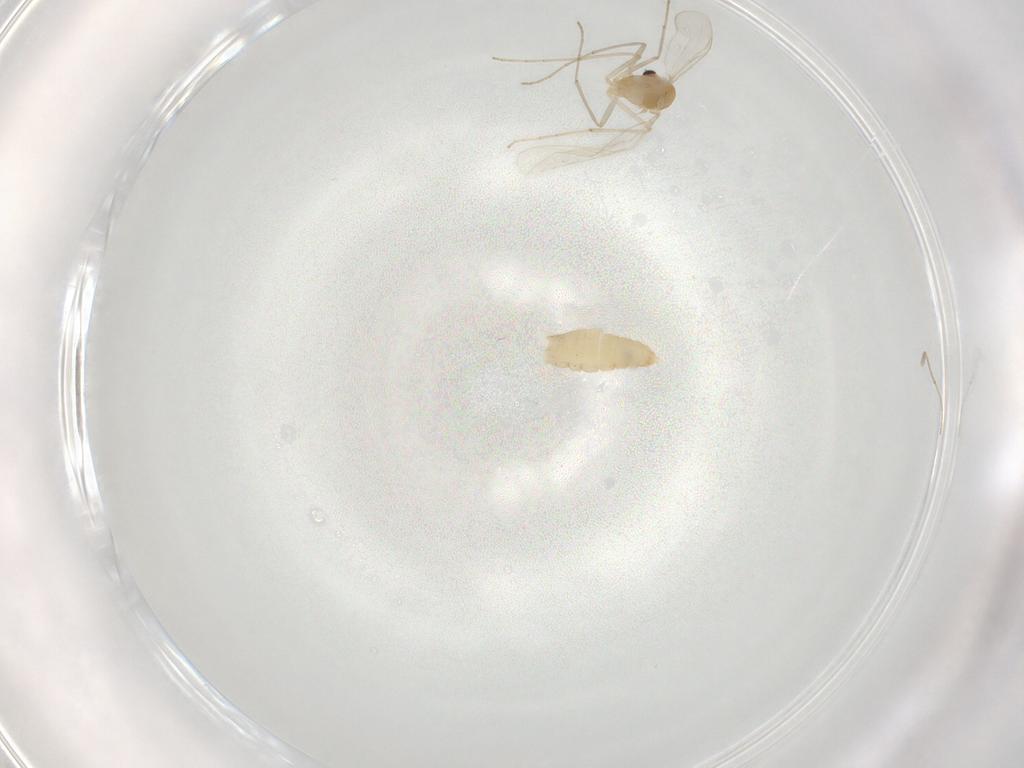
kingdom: Animalia
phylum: Arthropoda
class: Insecta
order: Diptera
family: Chironomidae
